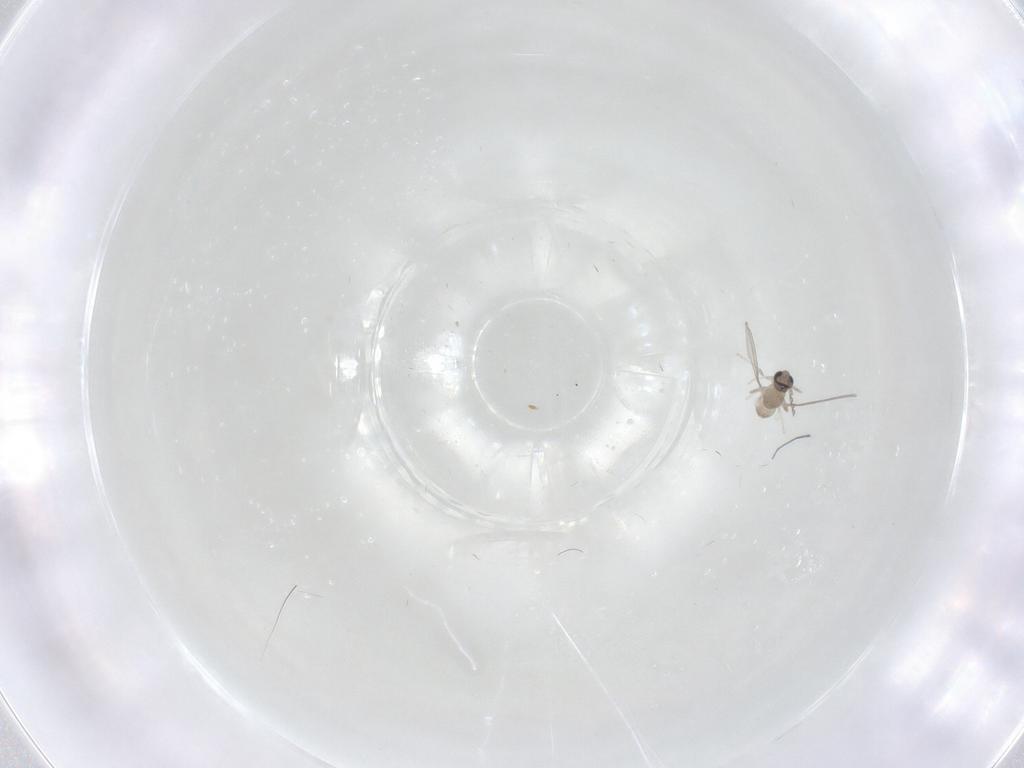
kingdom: Animalia
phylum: Arthropoda
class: Insecta
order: Diptera
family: Cecidomyiidae
